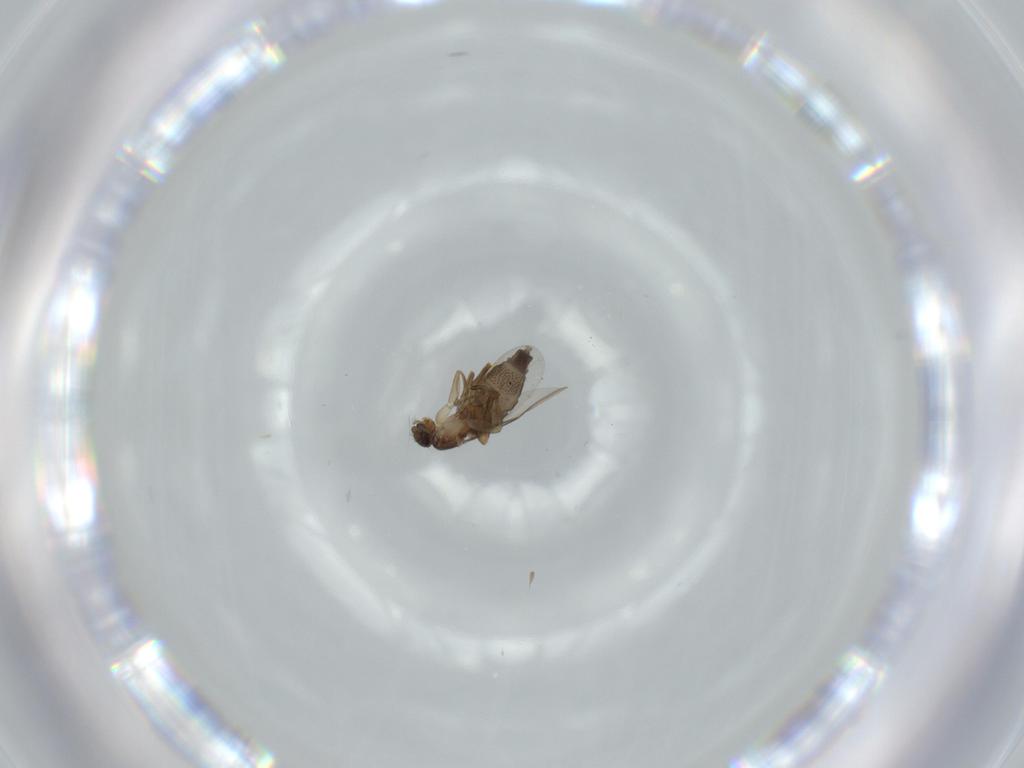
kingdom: Animalia
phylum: Arthropoda
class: Insecta
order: Diptera
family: Phoridae
